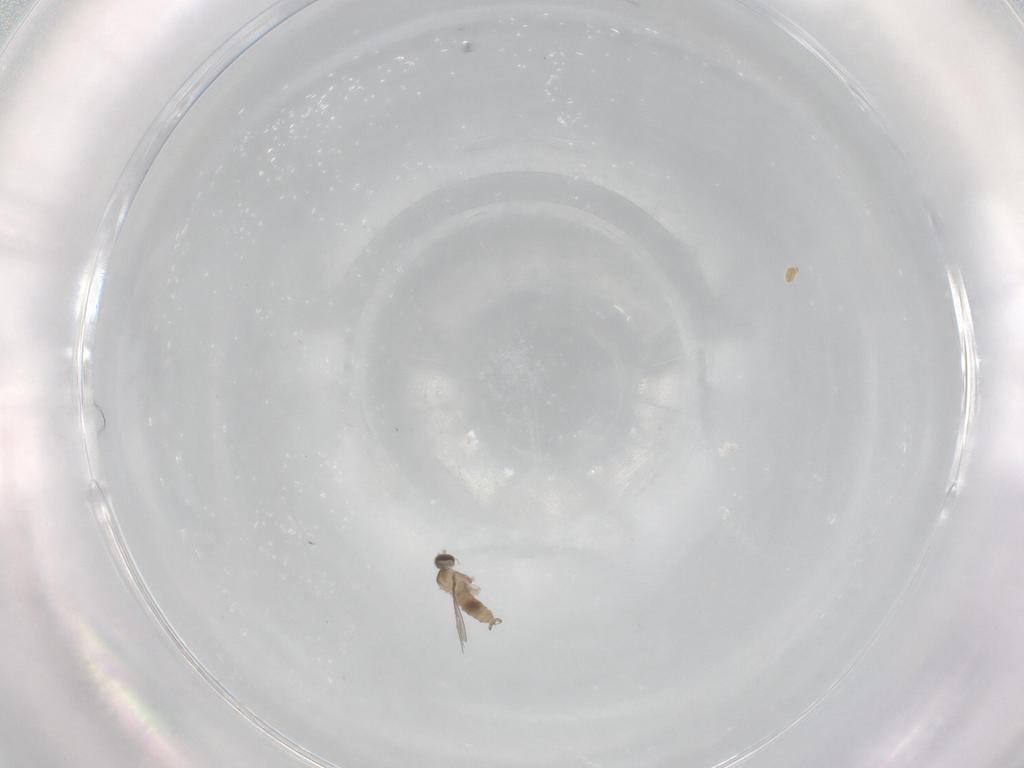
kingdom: Animalia
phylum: Arthropoda
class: Insecta
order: Diptera
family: Cecidomyiidae
